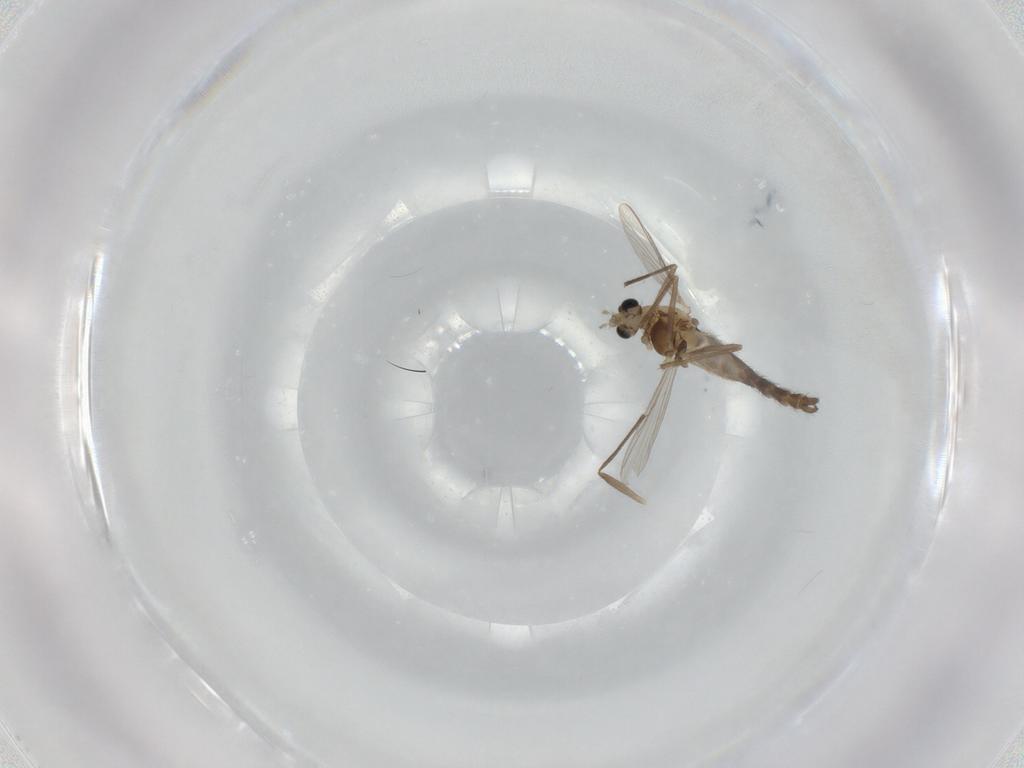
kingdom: Animalia
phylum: Arthropoda
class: Insecta
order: Diptera
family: Chironomidae
